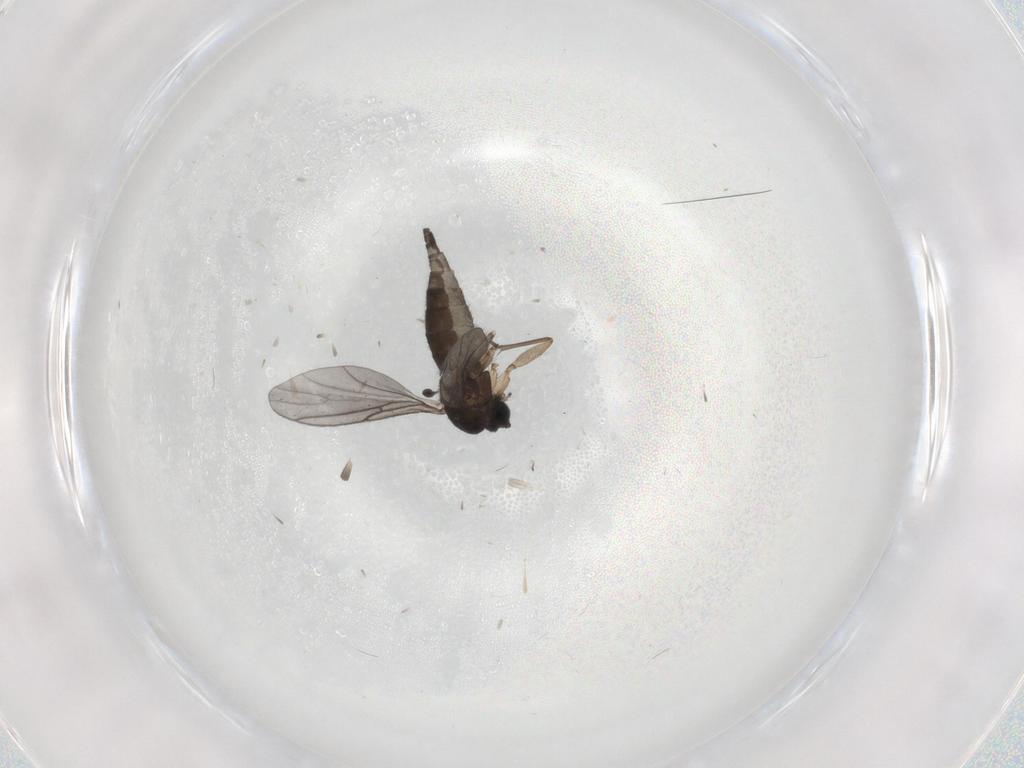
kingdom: Animalia
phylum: Arthropoda
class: Insecta
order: Diptera
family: Sciaridae
